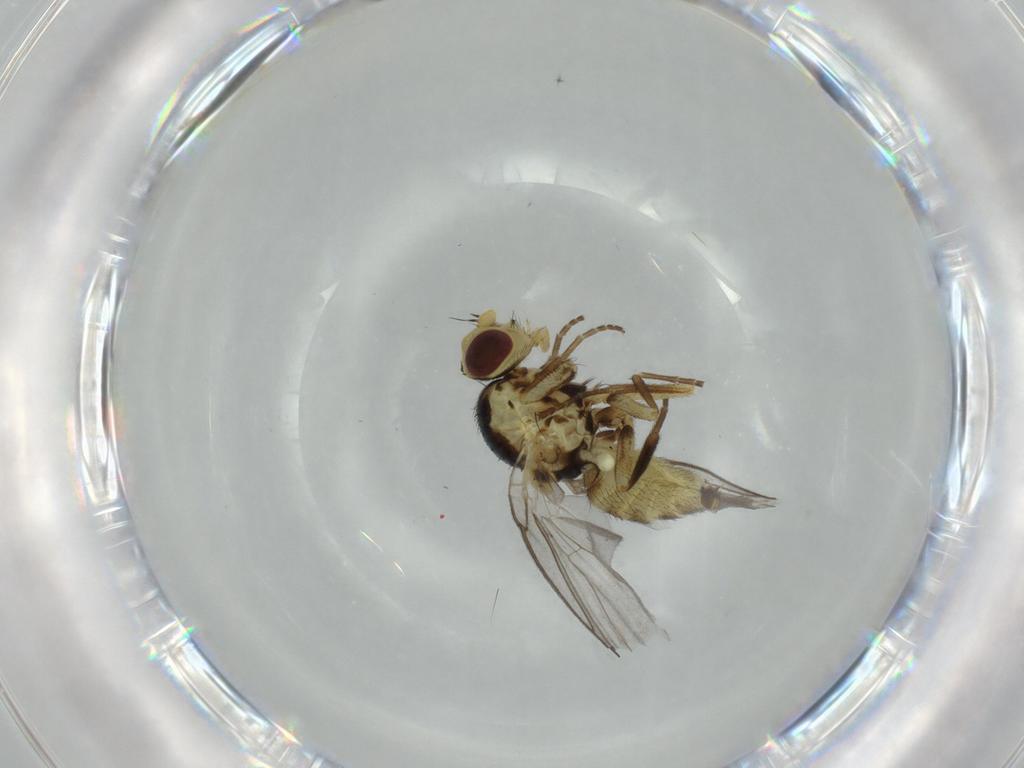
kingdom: Animalia
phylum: Arthropoda
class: Insecta
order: Diptera
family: Agromyzidae
